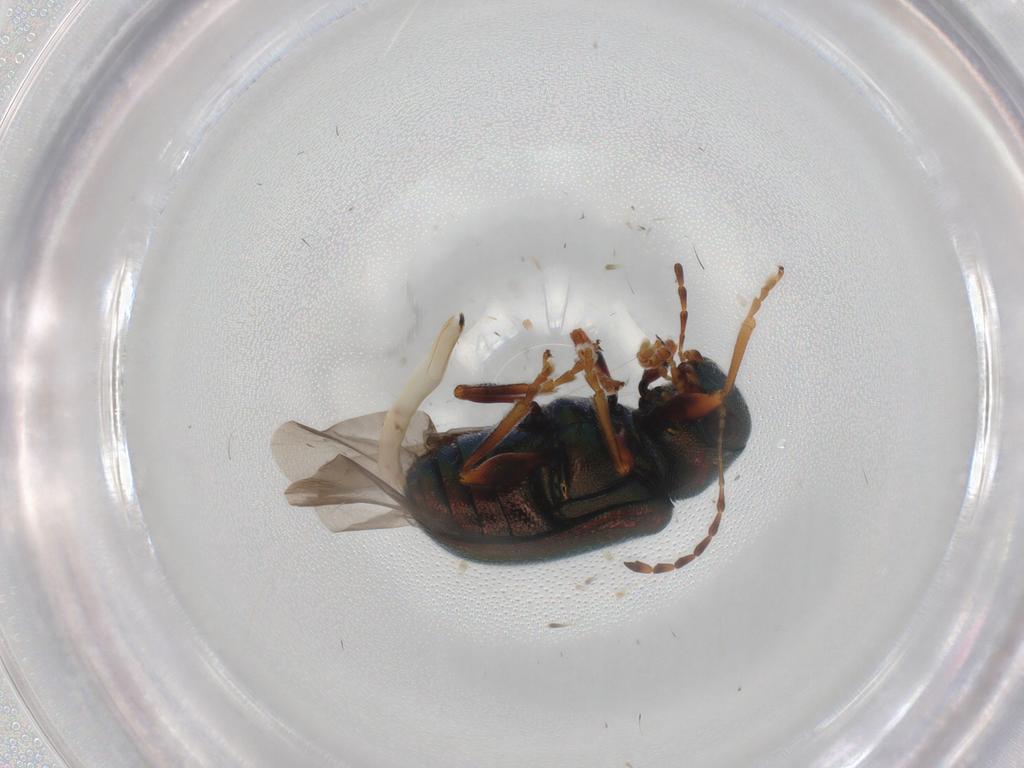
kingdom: Animalia
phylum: Arthropoda
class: Insecta
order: Coleoptera
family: Chrysomelidae
